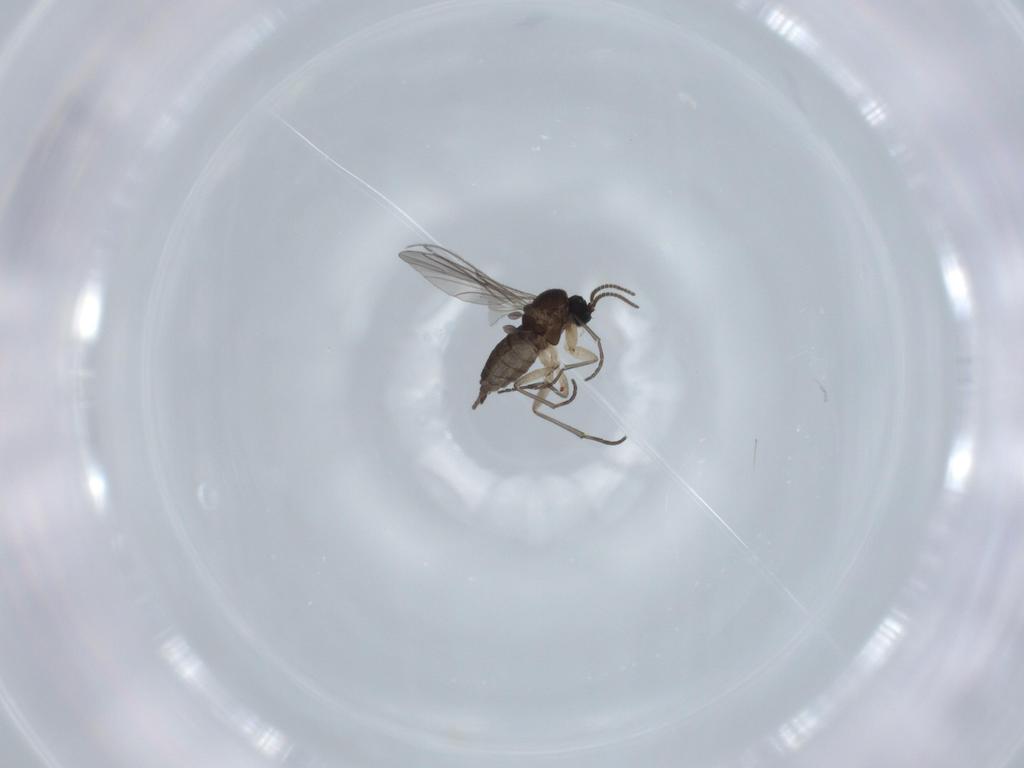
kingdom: Animalia
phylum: Arthropoda
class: Insecta
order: Diptera
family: Sciaridae
